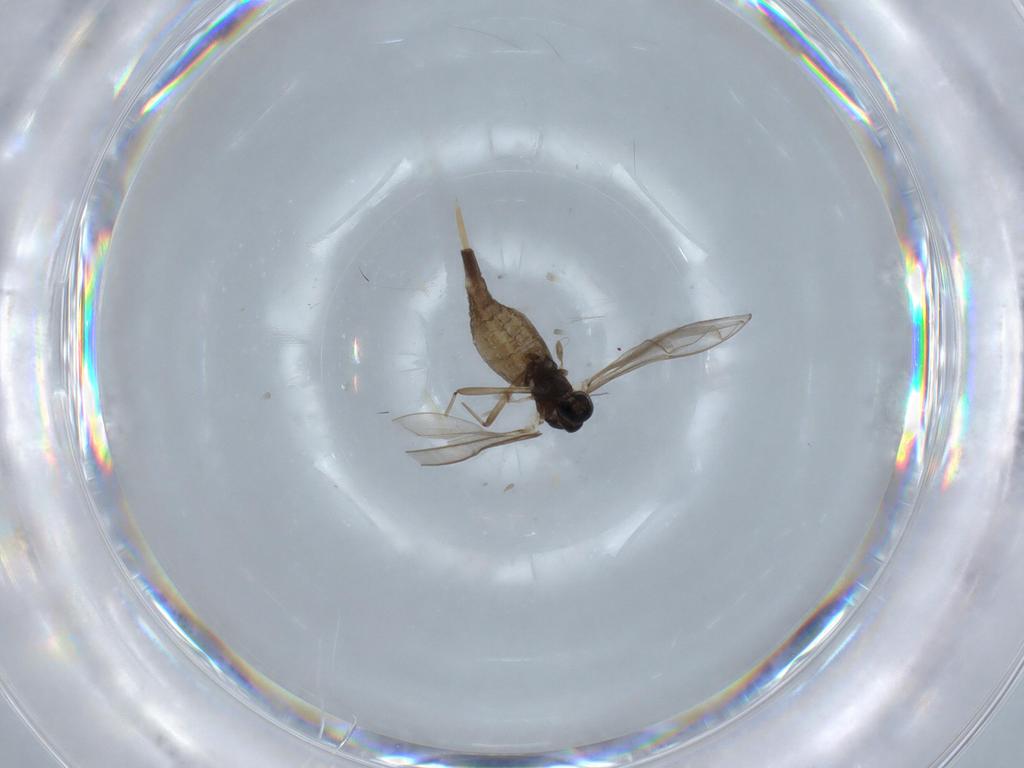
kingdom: Animalia
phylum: Arthropoda
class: Insecta
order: Diptera
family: Cecidomyiidae
